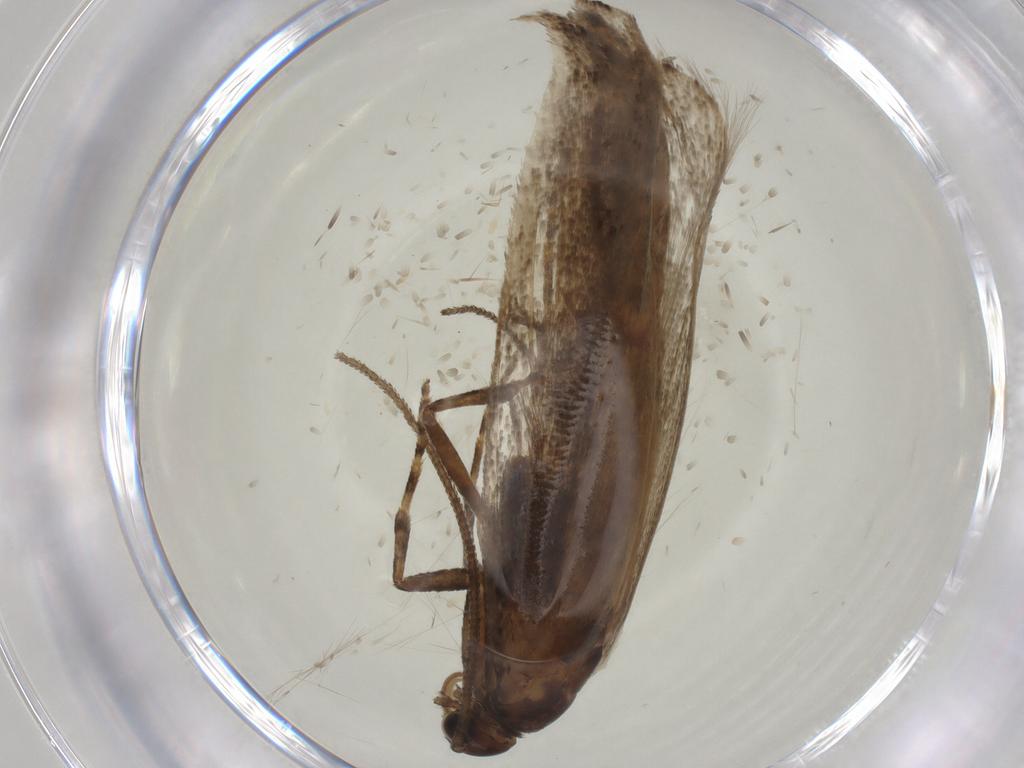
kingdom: Animalia
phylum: Arthropoda
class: Insecta
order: Lepidoptera
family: Gelechiidae
